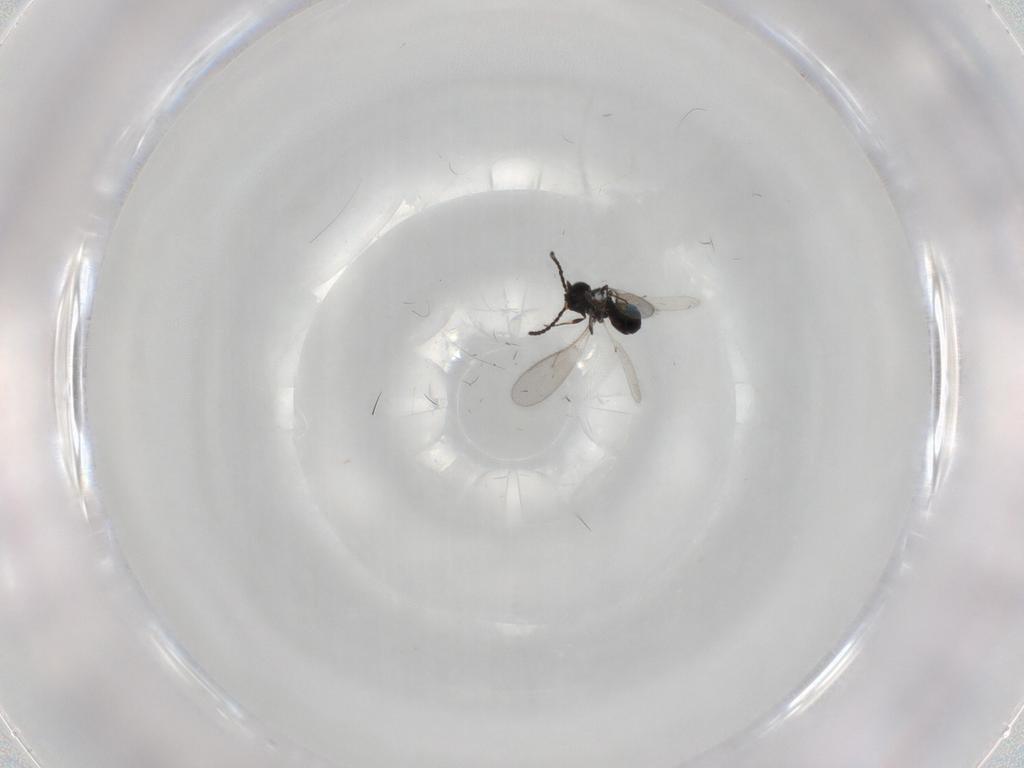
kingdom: Animalia
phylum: Arthropoda
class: Insecta
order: Hymenoptera
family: Scelionidae
